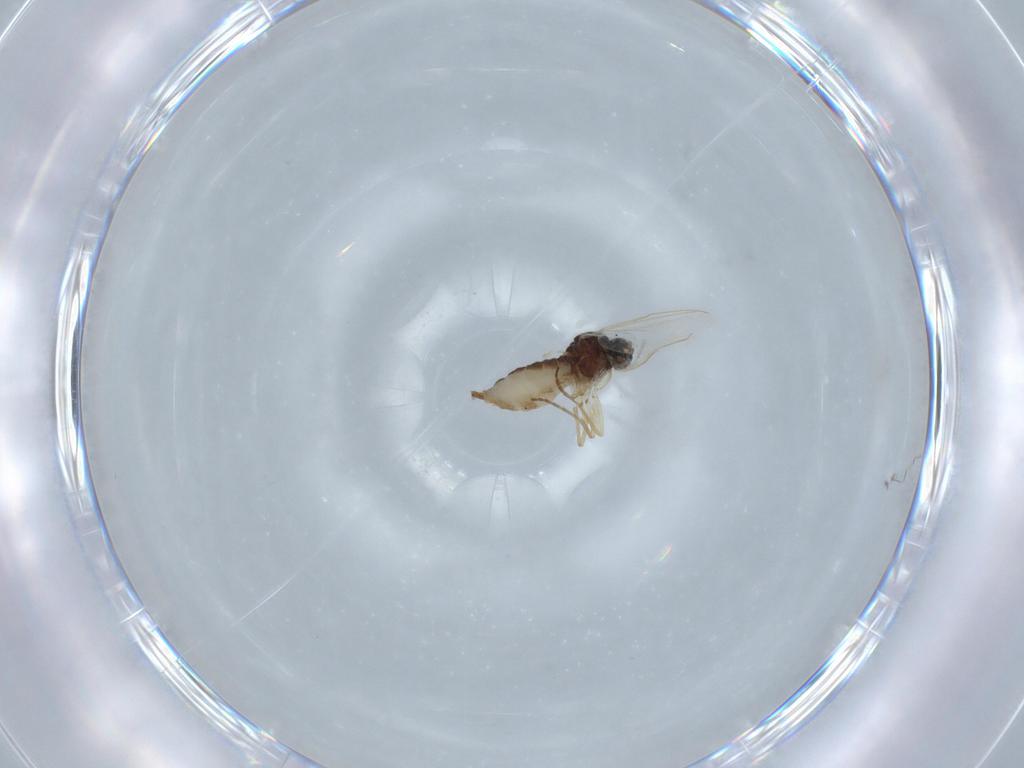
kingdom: Animalia
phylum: Arthropoda
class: Insecta
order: Diptera
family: Sciaridae
